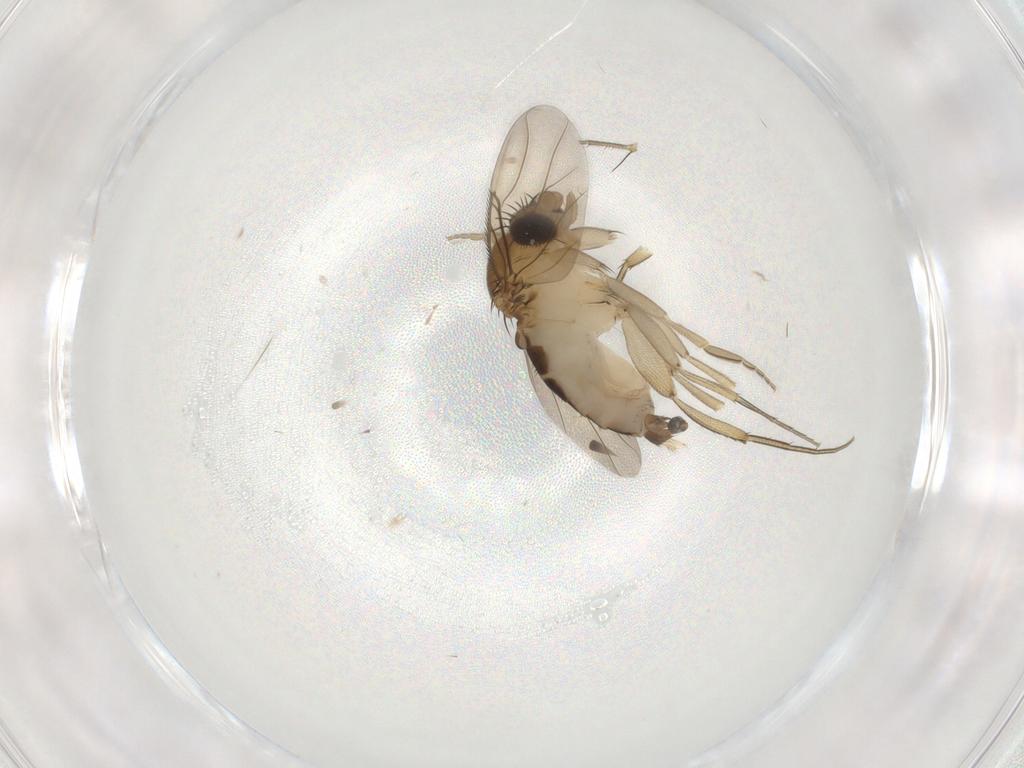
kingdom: Animalia
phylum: Arthropoda
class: Insecta
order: Diptera
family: Phoridae
